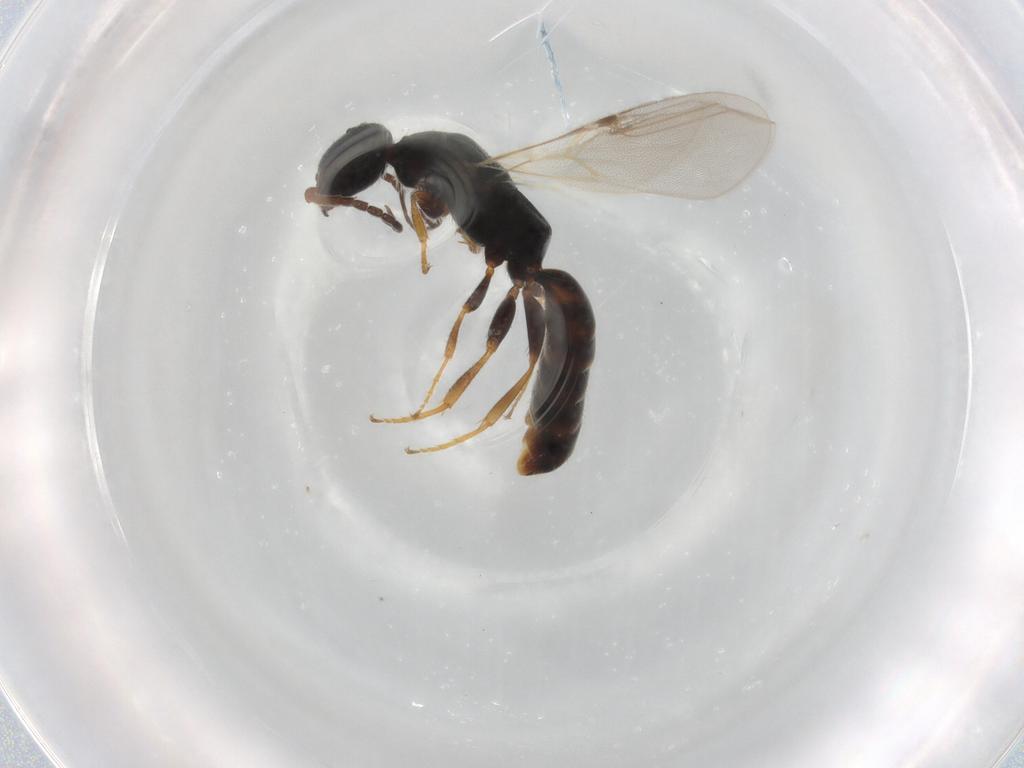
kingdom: Animalia
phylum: Arthropoda
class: Insecta
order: Hymenoptera
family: Bethylidae
